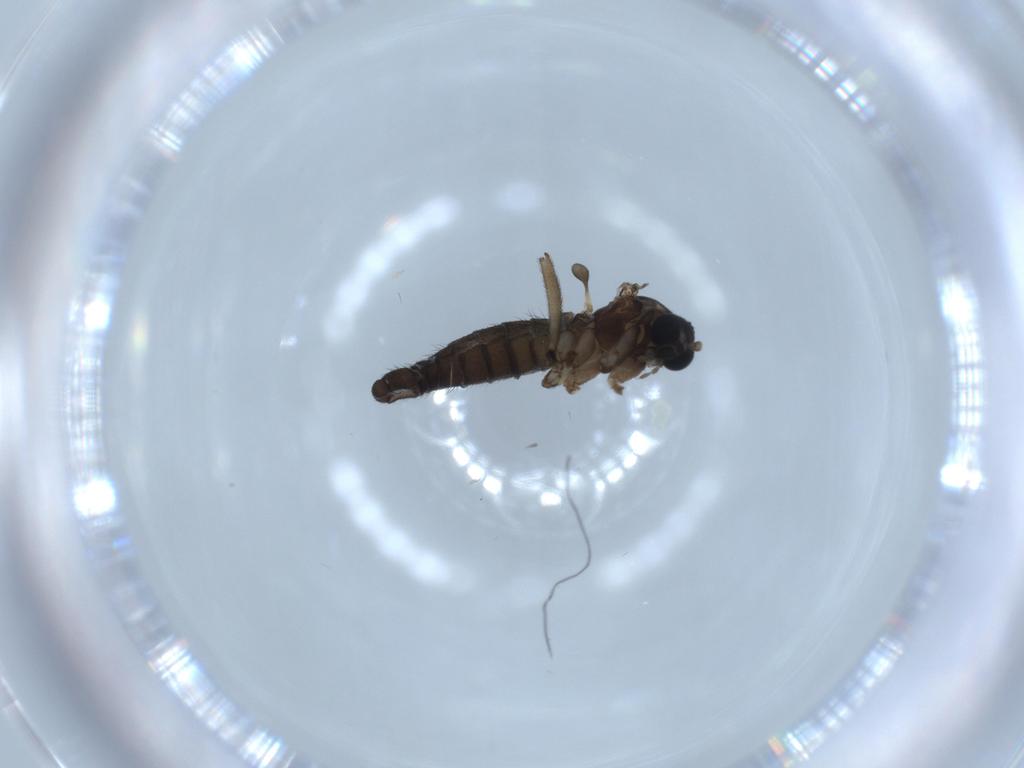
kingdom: Animalia
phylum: Arthropoda
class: Insecta
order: Diptera
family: Sciaridae
